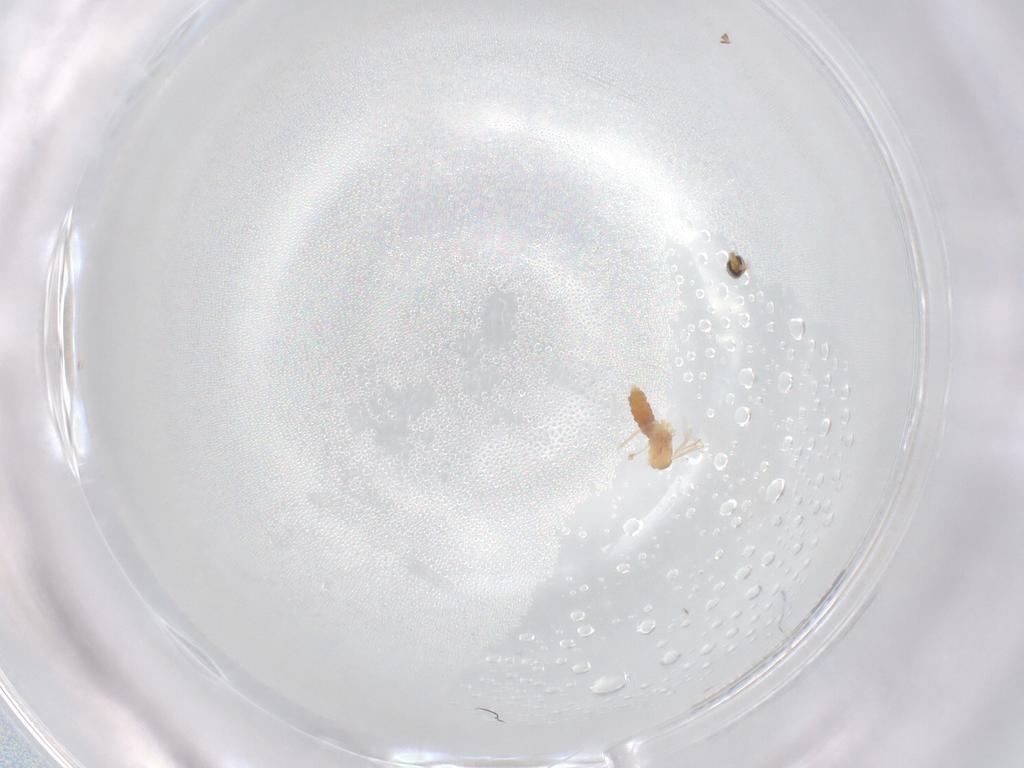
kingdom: Animalia
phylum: Arthropoda
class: Insecta
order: Diptera
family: Cecidomyiidae
